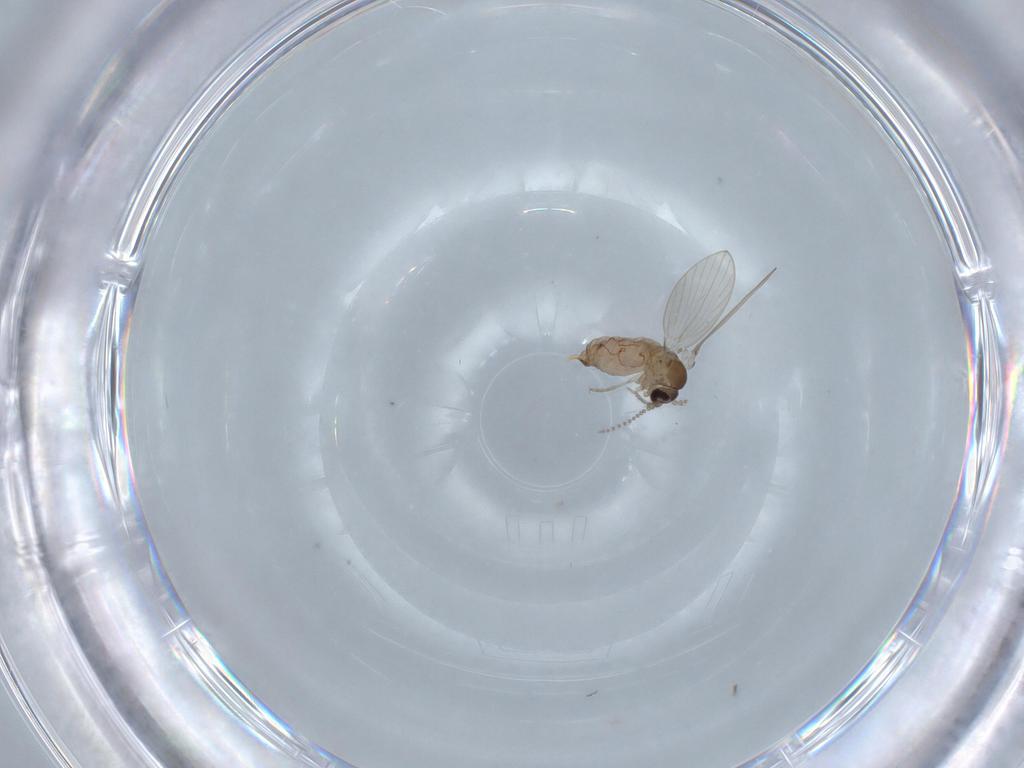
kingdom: Animalia
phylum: Arthropoda
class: Insecta
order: Diptera
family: Psychodidae
